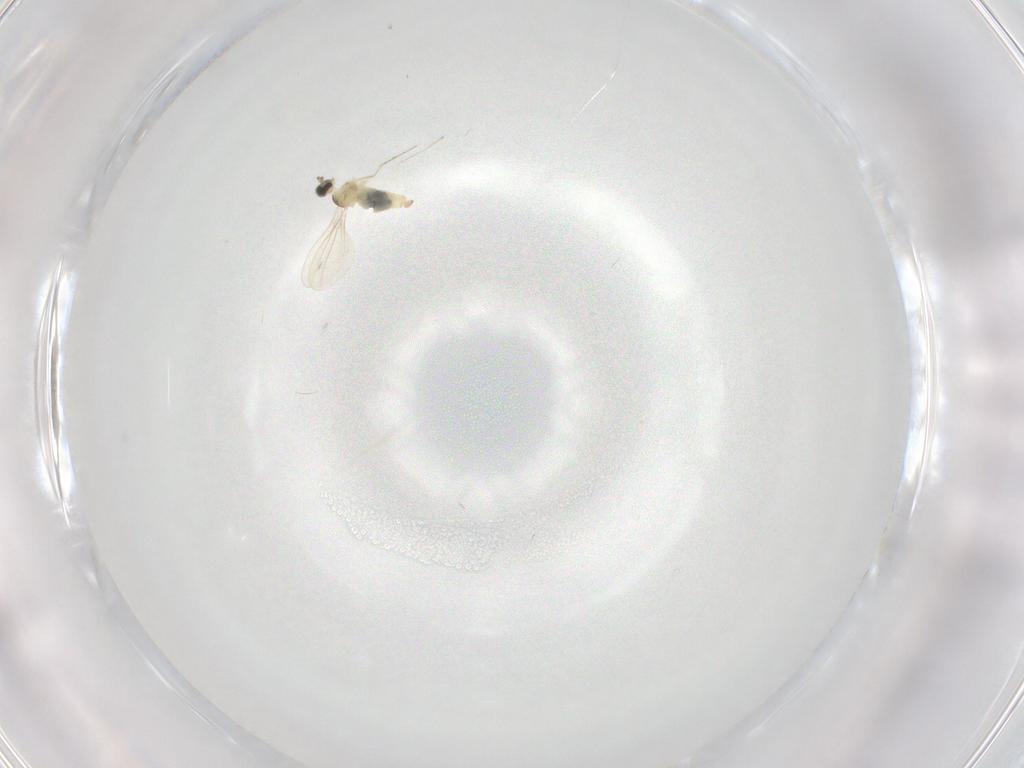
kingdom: Animalia
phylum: Arthropoda
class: Insecta
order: Diptera
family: Cecidomyiidae
